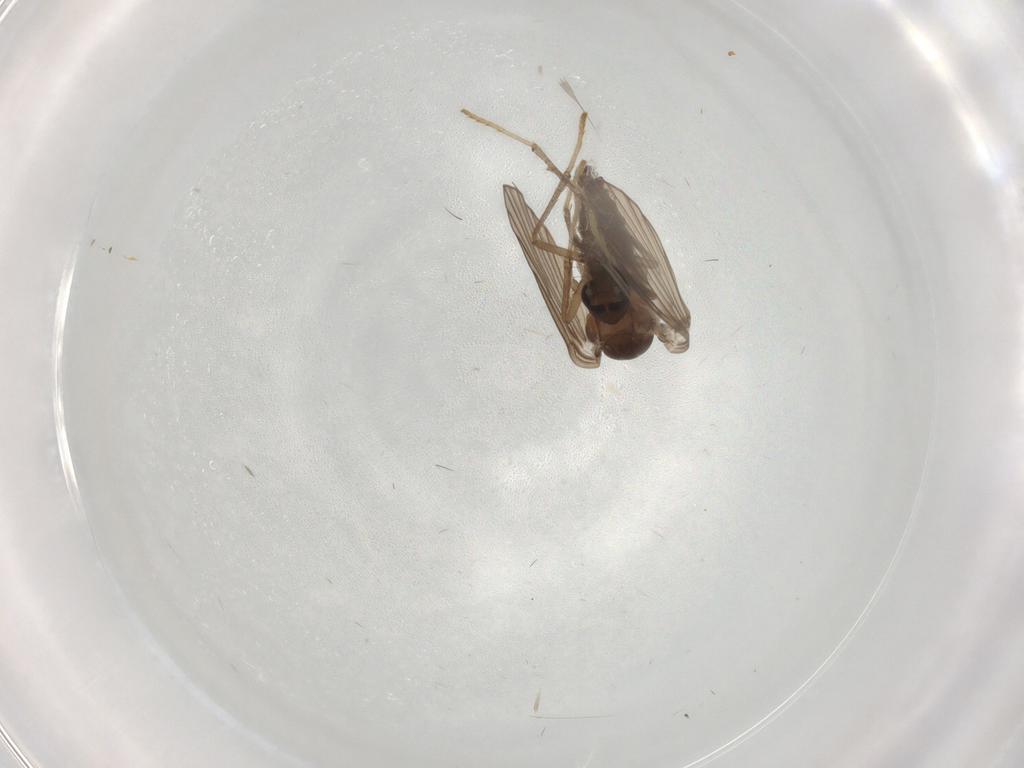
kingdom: Animalia
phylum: Arthropoda
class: Insecta
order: Diptera
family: Psychodidae
